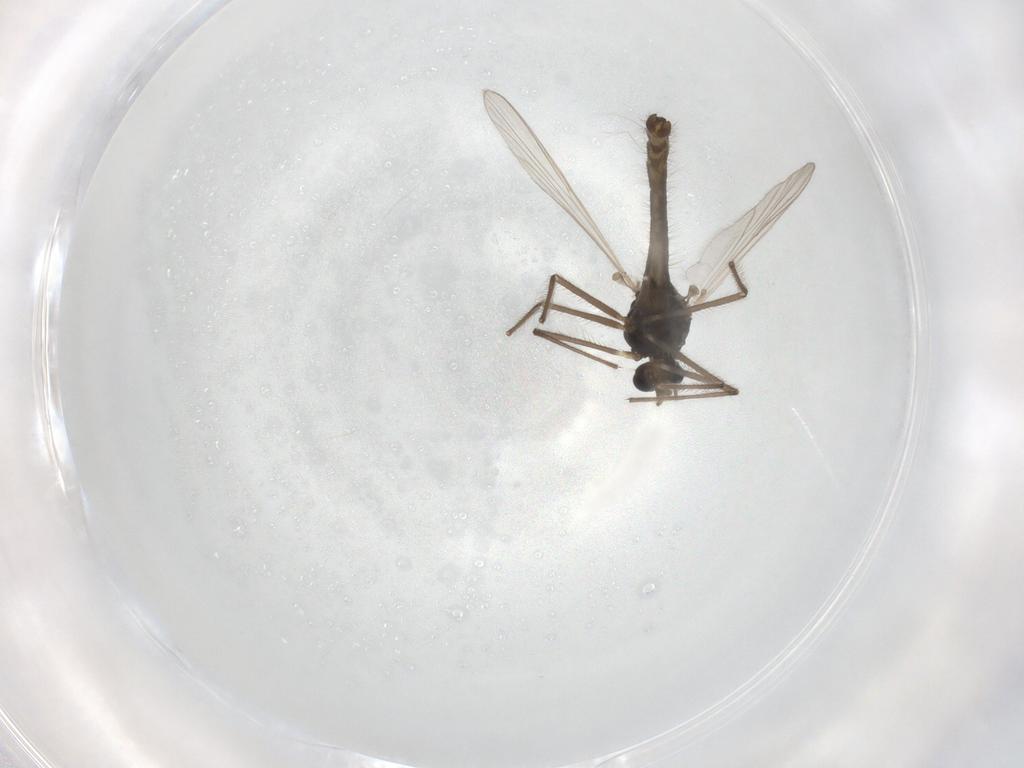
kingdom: Animalia
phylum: Arthropoda
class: Insecta
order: Diptera
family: Chironomidae
